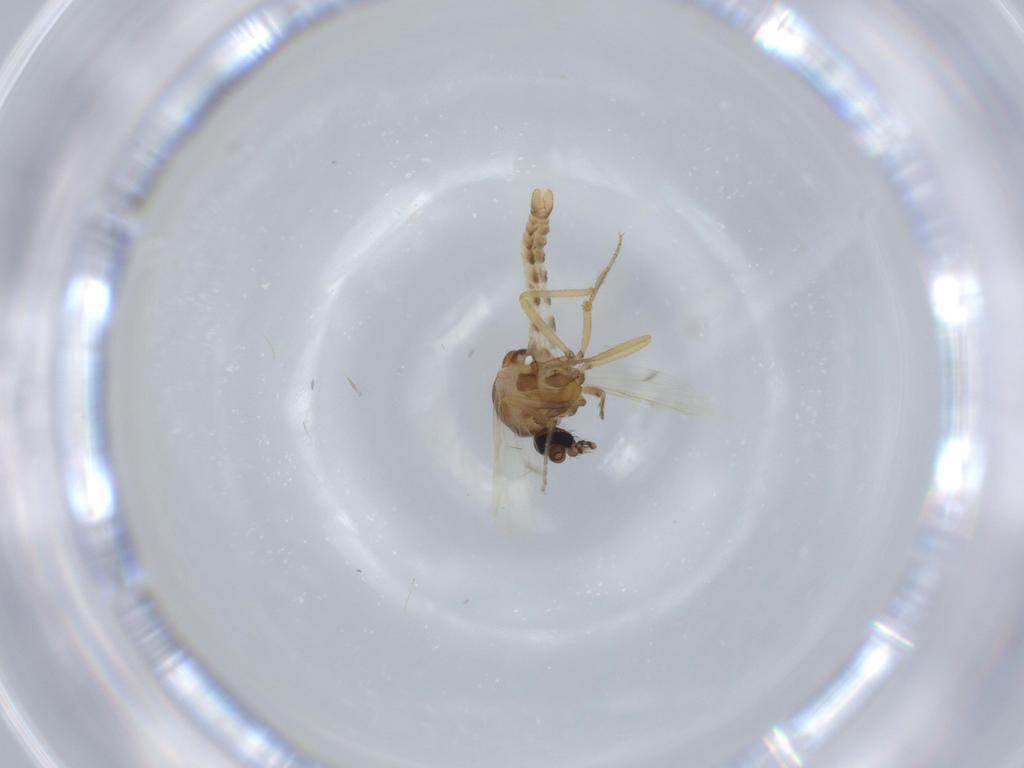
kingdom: Animalia
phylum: Arthropoda
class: Insecta
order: Diptera
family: Ceratopogonidae
